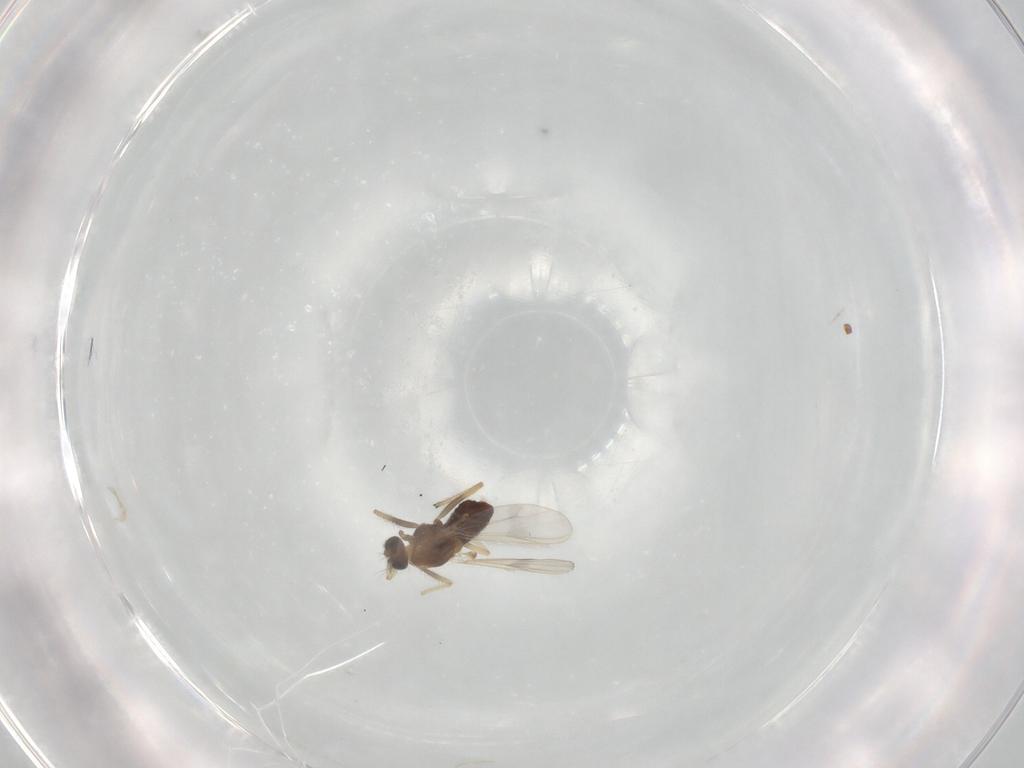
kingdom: Animalia
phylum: Arthropoda
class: Insecta
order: Diptera
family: Chironomidae
